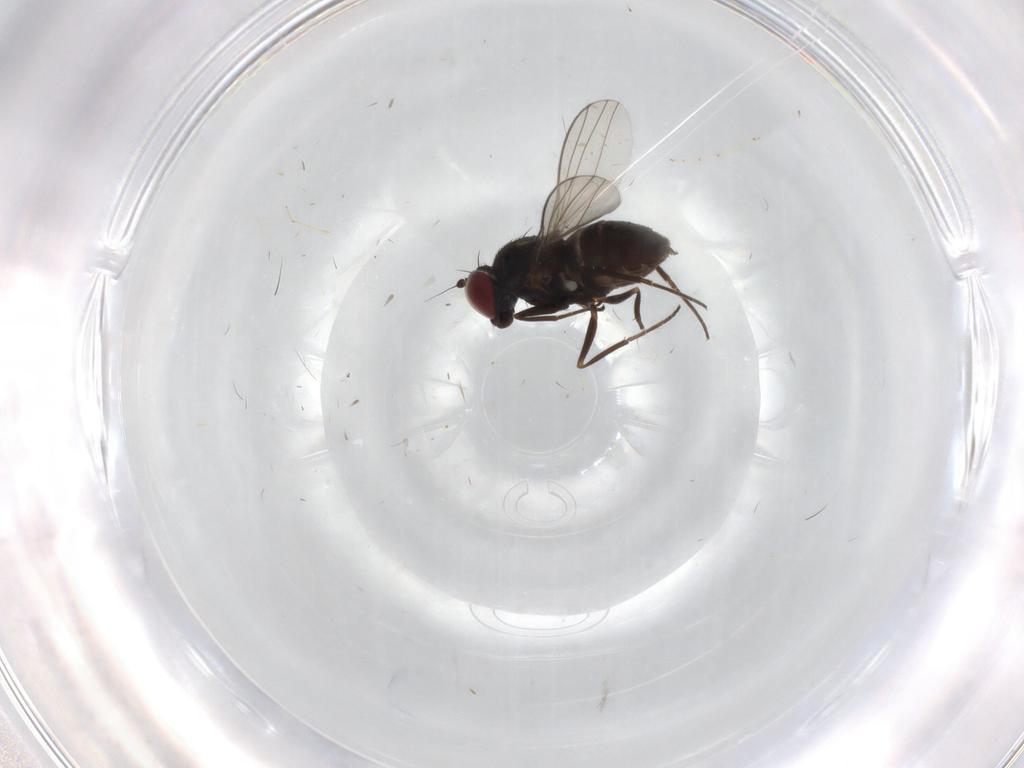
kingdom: Animalia
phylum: Arthropoda
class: Insecta
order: Diptera
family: Dolichopodidae
